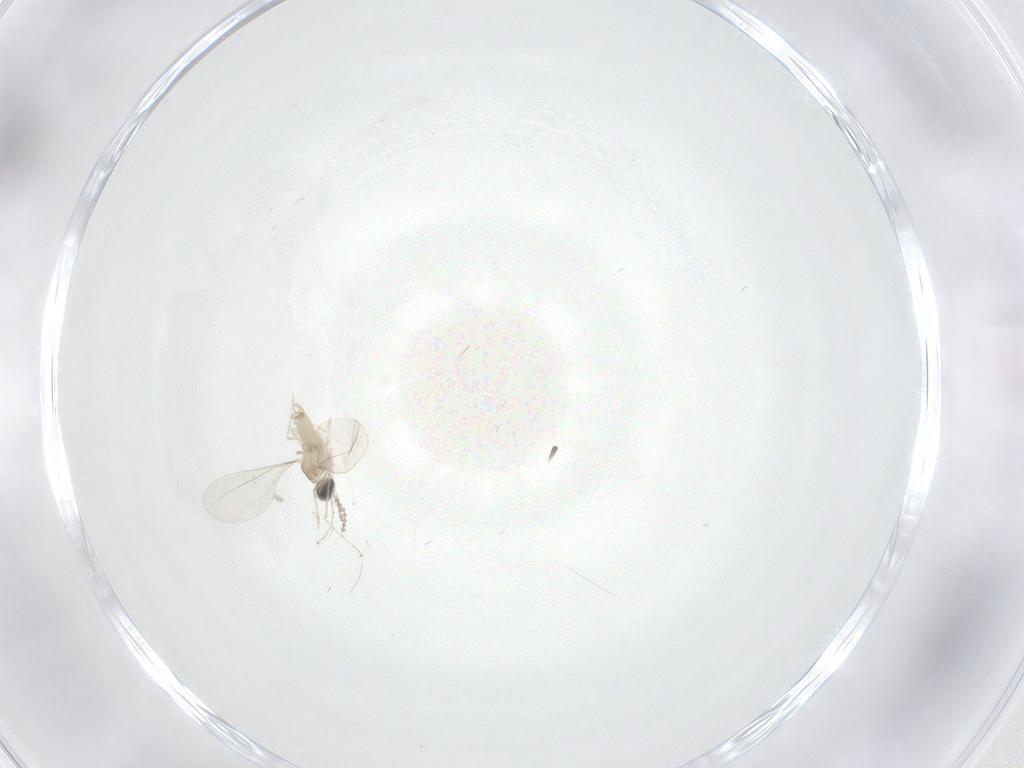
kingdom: Animalia
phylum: Arthropoda
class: Insecta
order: Diptera
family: Cecidomyiidae
